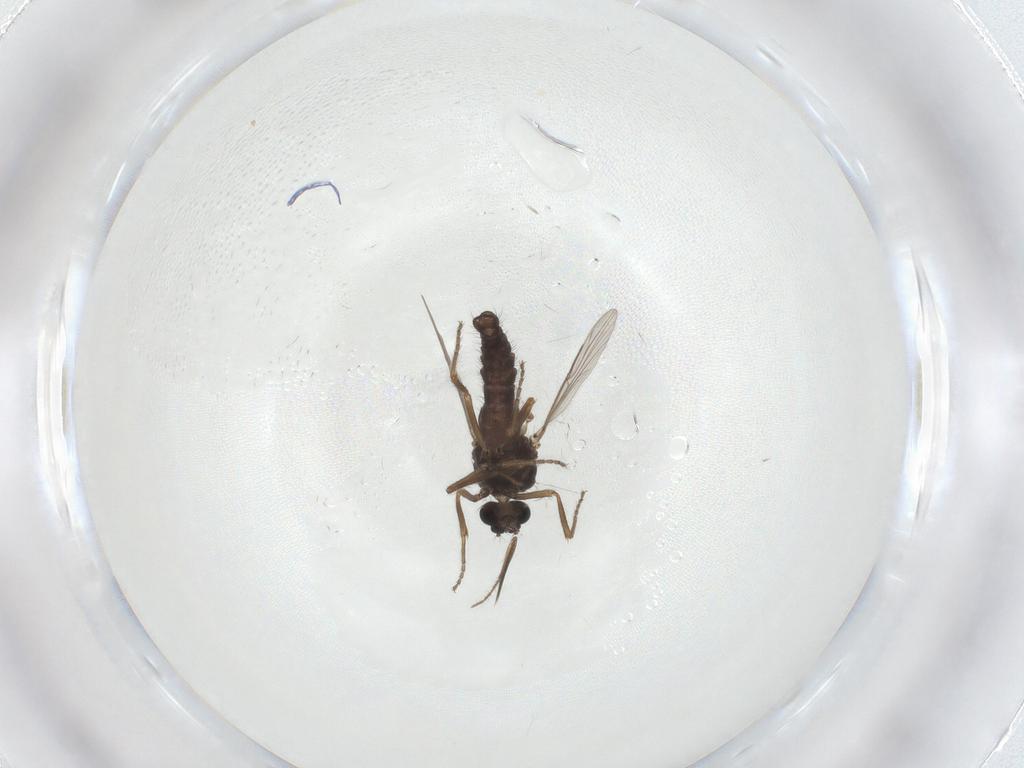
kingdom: Animalia
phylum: Arthropoda
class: Insecta
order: Diptera
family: Ceratopogonidae
